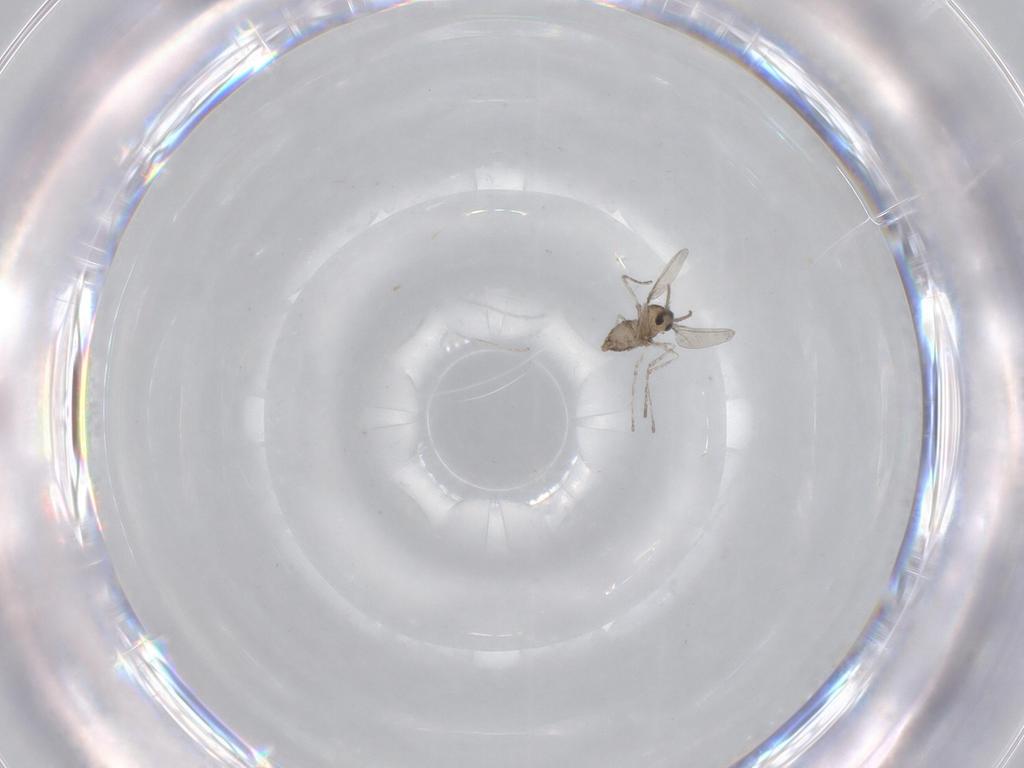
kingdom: Animalia
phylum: Arthropoda
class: Insecta
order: Diptera
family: Cecidomyiidae
